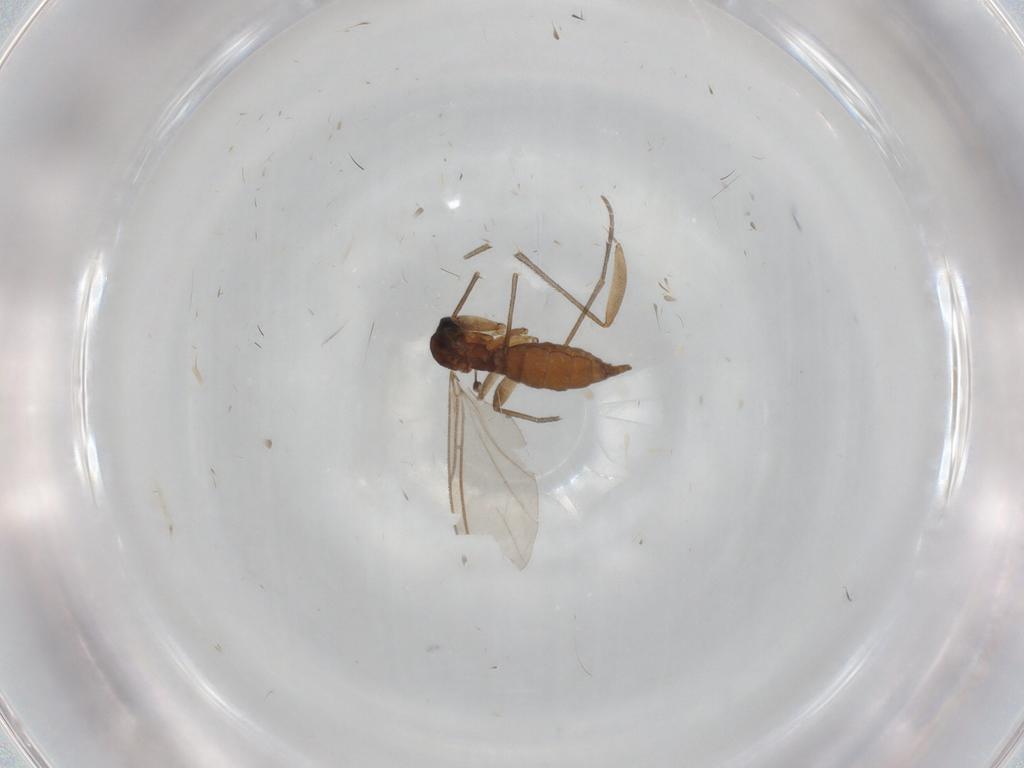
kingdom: Animalia
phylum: Arthropoda
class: Insecta
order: Diptera
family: Sciaridae
